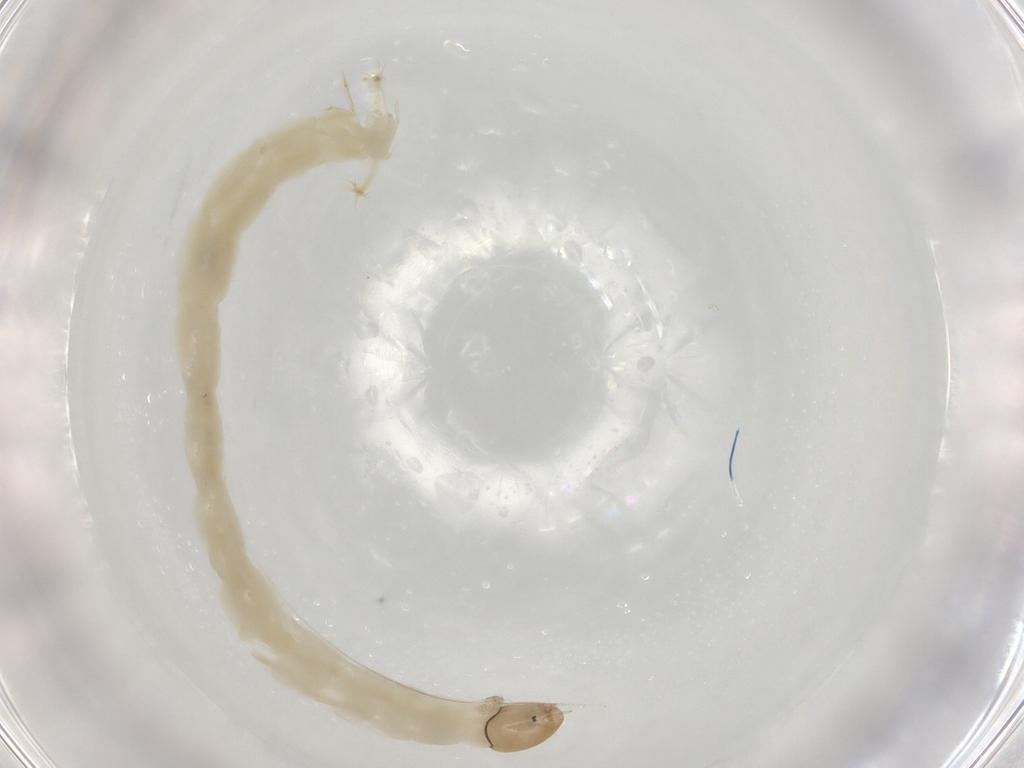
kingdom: Animalia
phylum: Arthropoda
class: Insecta
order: Diptera
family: Chironomidae
